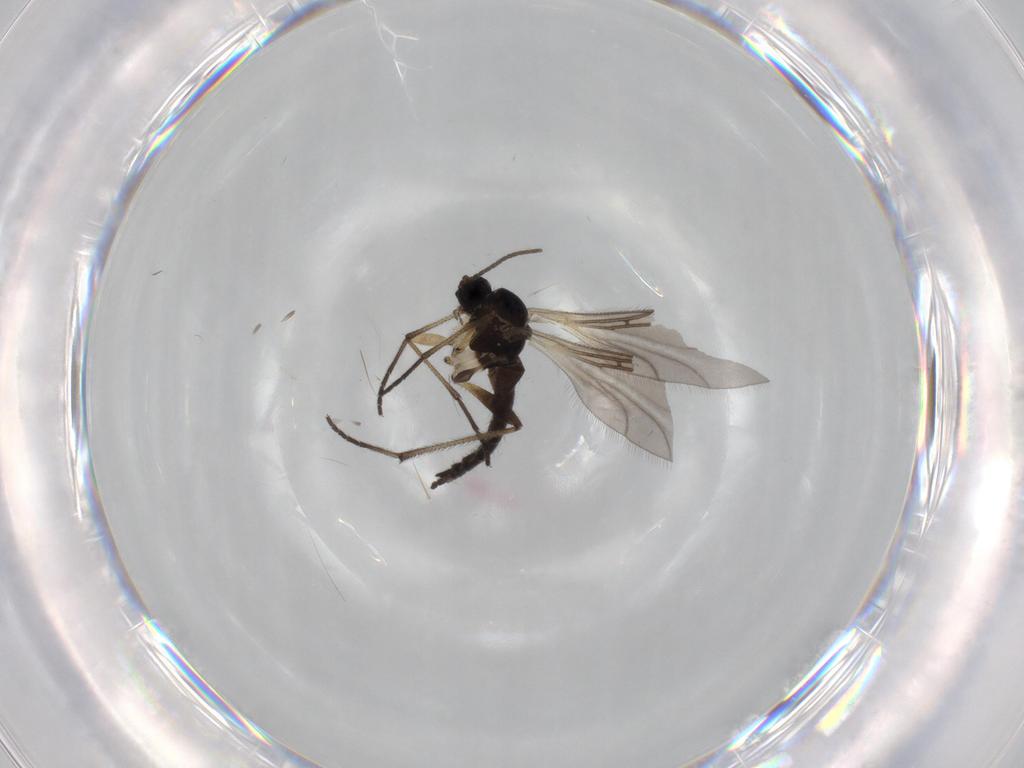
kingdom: Animalia
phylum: Arthropoda
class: Insecta
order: Diptera
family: Sciaridae
